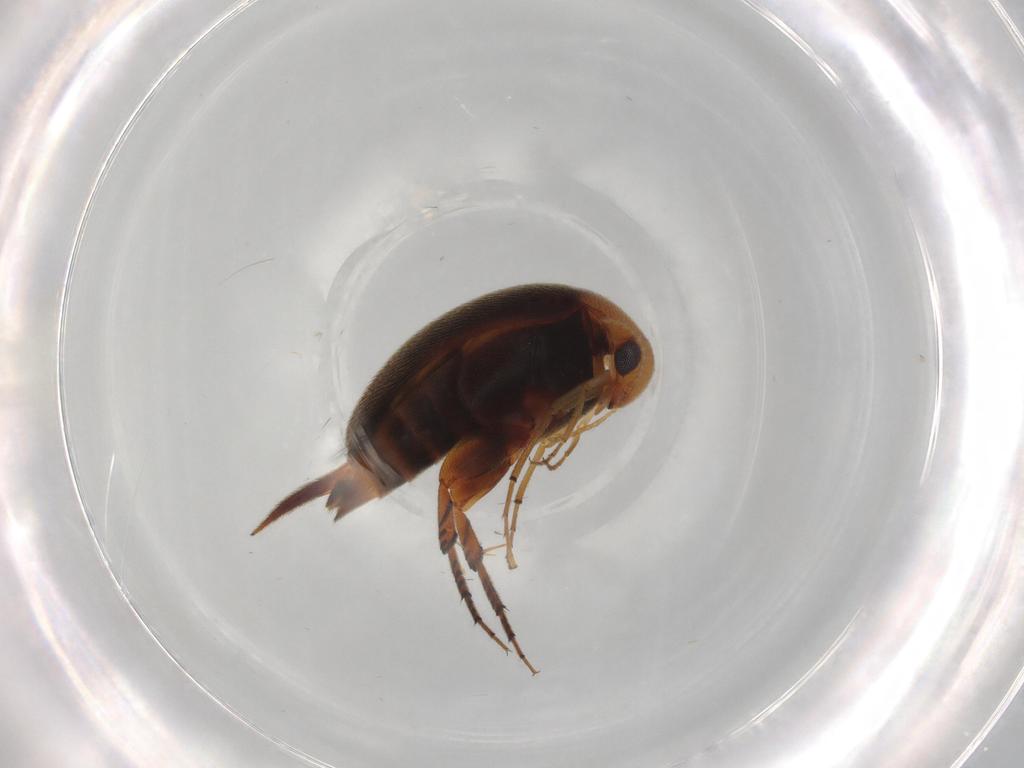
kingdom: Animalia
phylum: Arthropoda
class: Insecta
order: Coleoptera
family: Mordellidae
